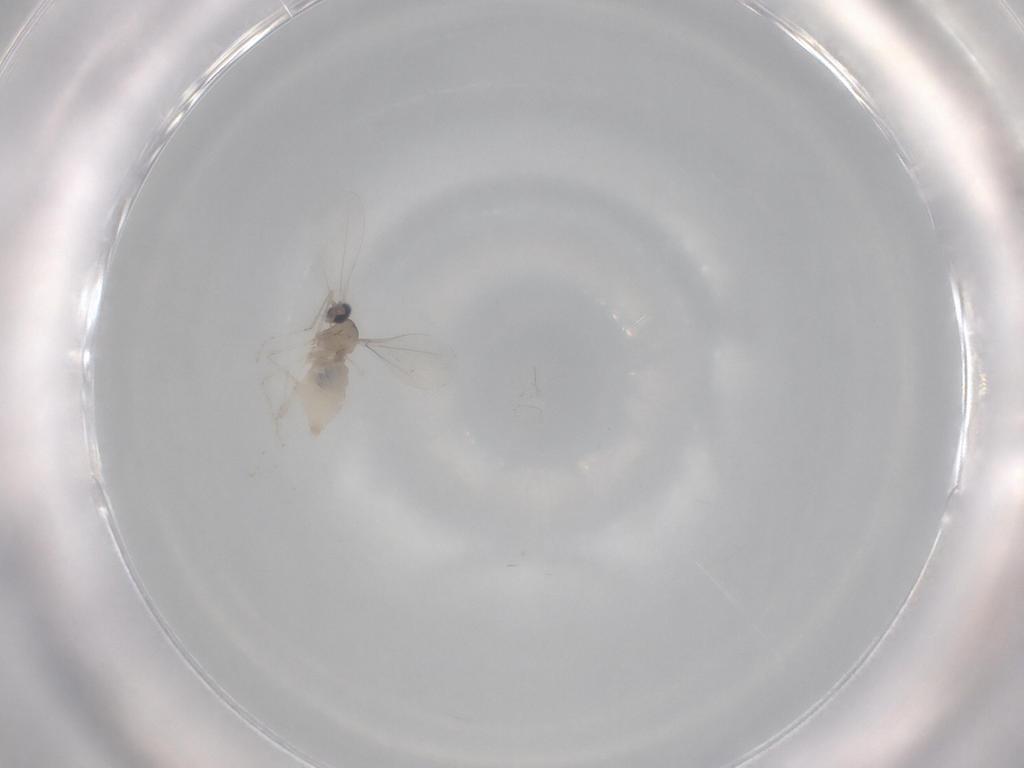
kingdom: Animalia
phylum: Arthropoda
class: Insecta
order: Diptera
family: Cecidomyiidae
